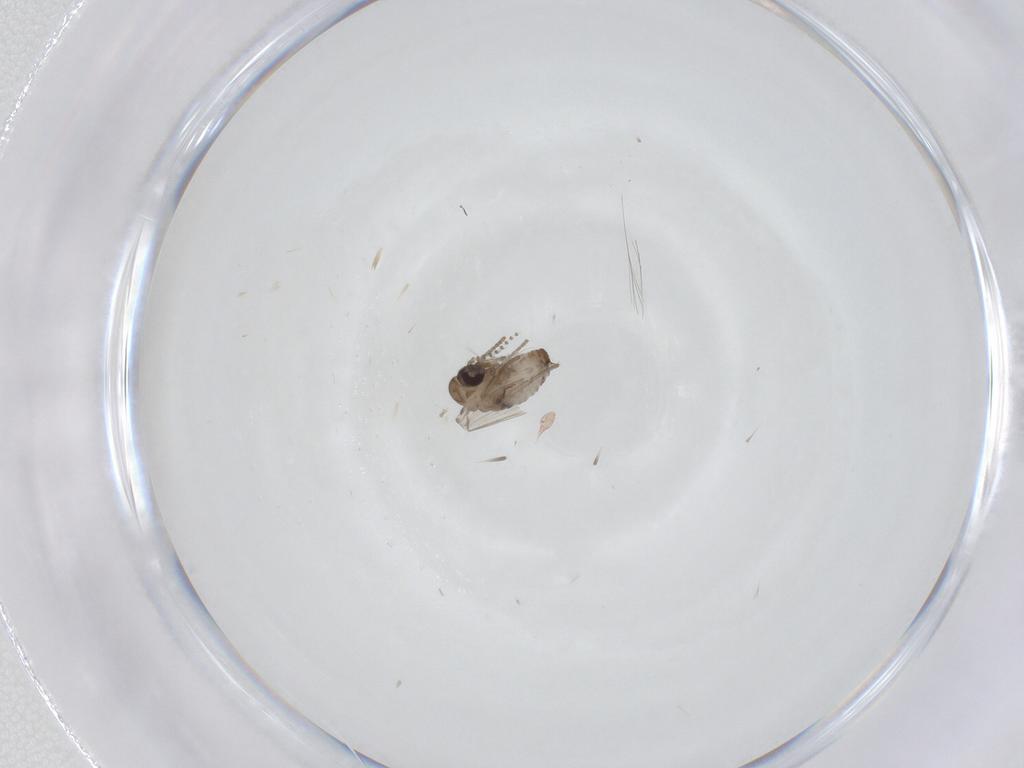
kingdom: Animalia
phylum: Arthropoda
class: Insecta
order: Diptera
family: Psychodidae
